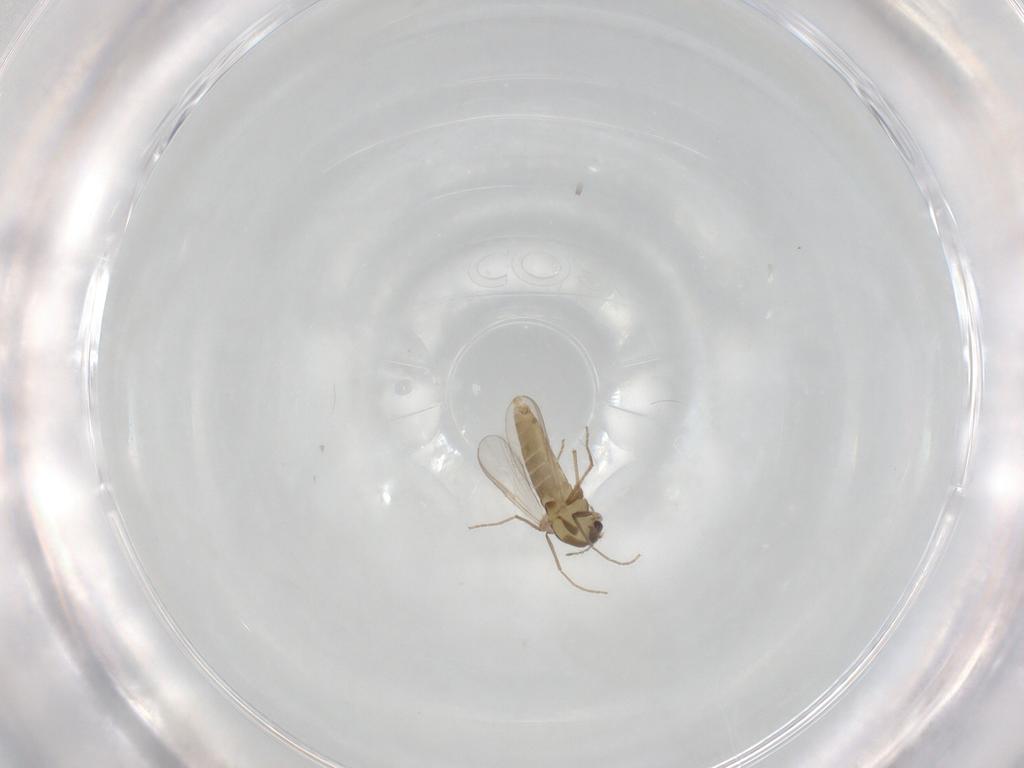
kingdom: Animalia
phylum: Arthropoda
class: Insecta
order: Diptera
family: Chironomidae
